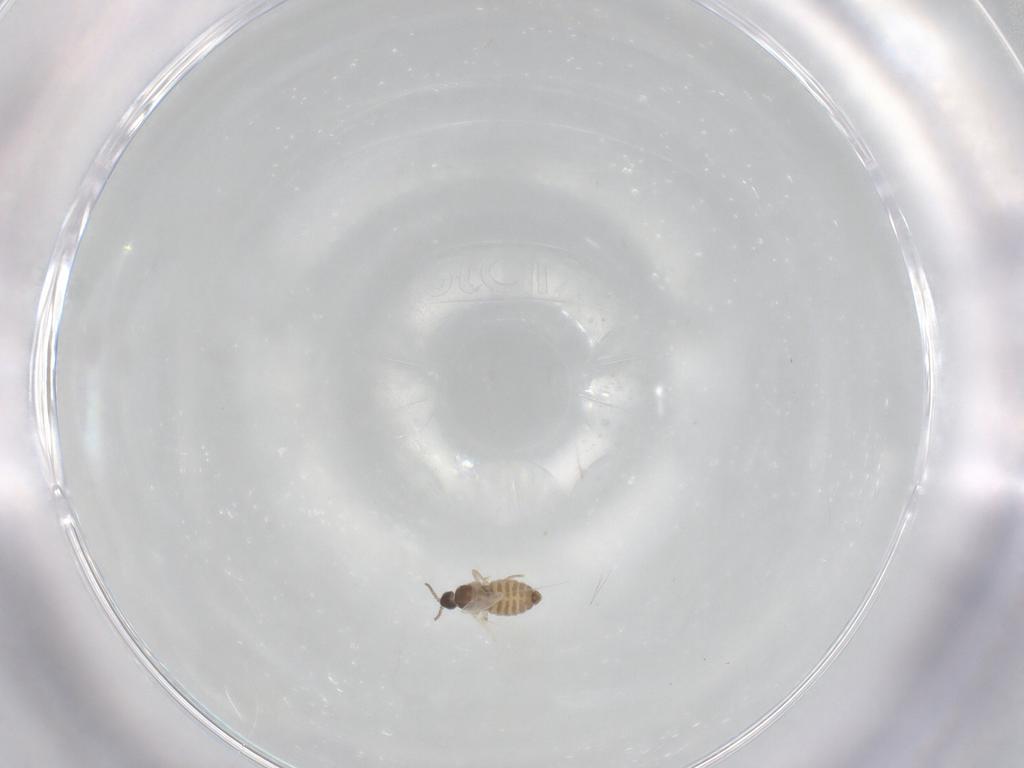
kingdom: Animalia
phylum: Arthropoda
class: Insecta
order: Diptera
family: Cecidomyiidae
